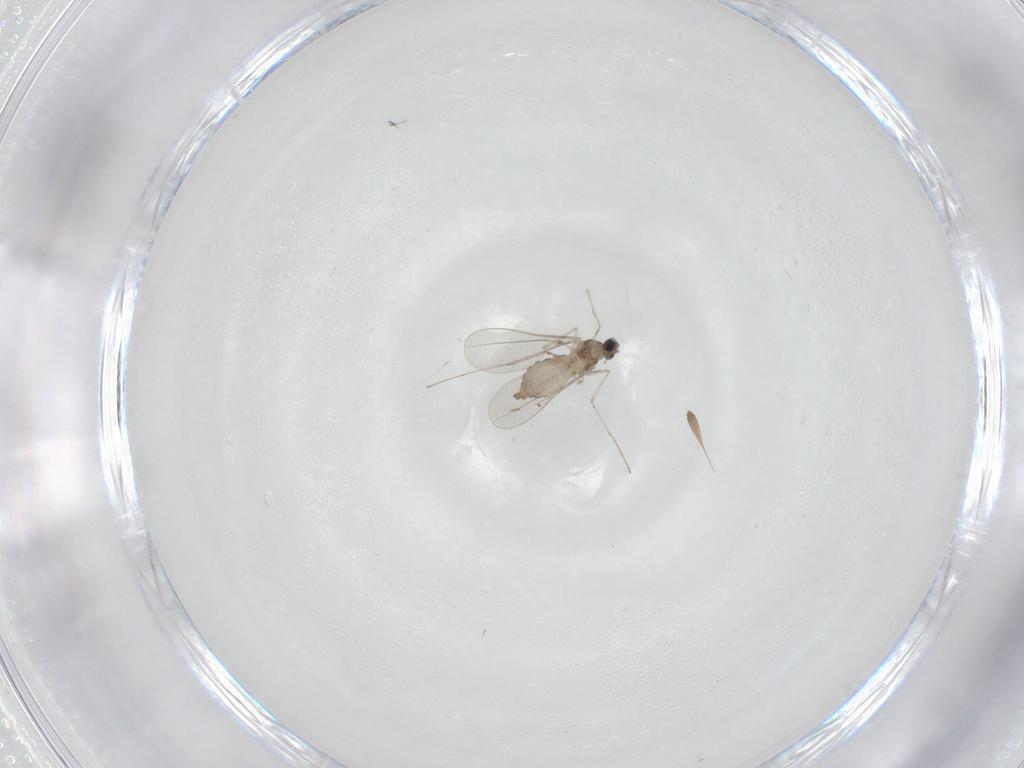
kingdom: Animalia
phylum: Arthropoda
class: Insecta
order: Diptera
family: Cecidomyiidae
